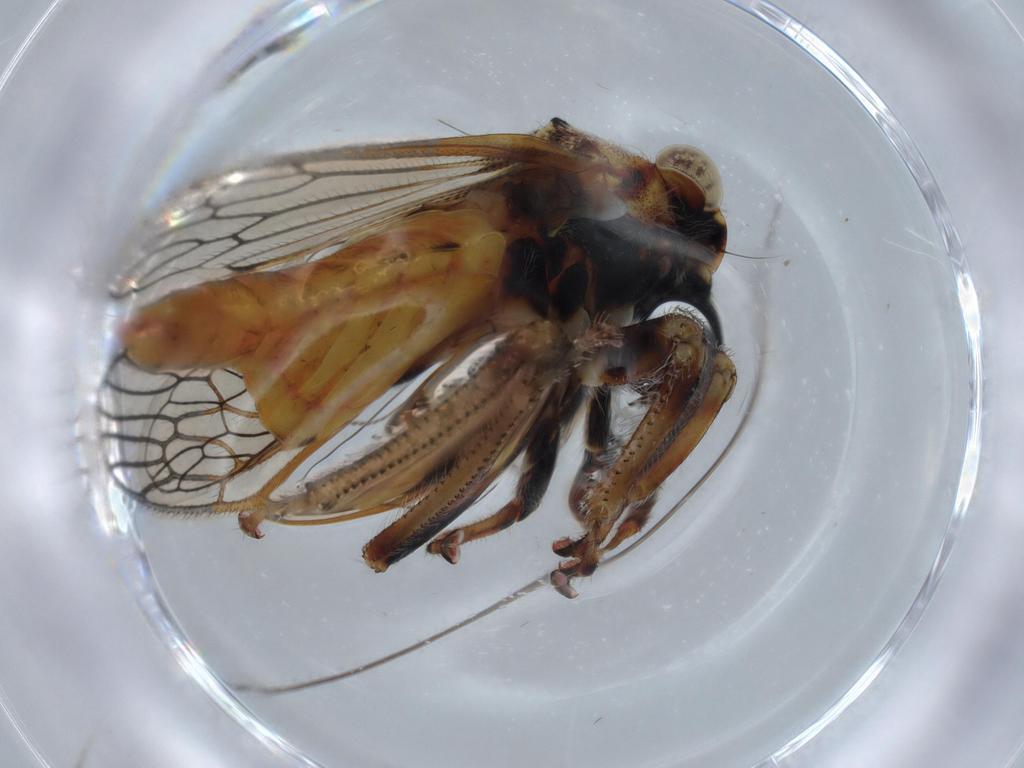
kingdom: Animalia
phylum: Arthropoda
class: Insecta
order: Hemiptera
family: Membracidae
